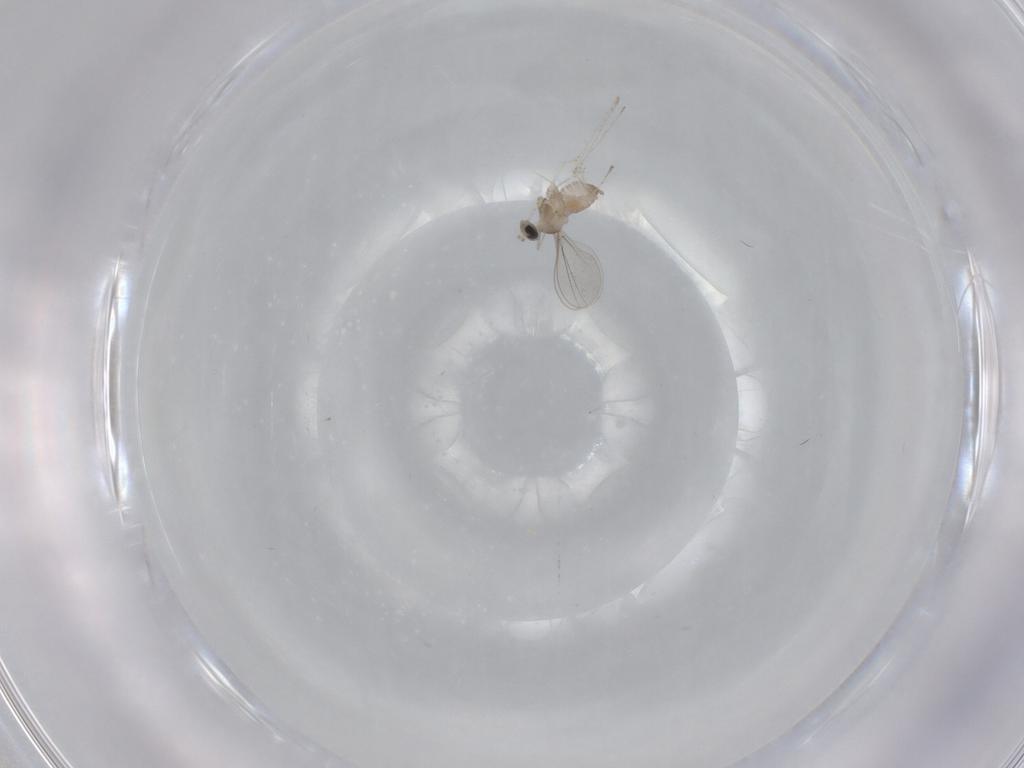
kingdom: Animalia
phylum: Arthropoda
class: Insecta
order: Diptera
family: Cecidomyiidae
